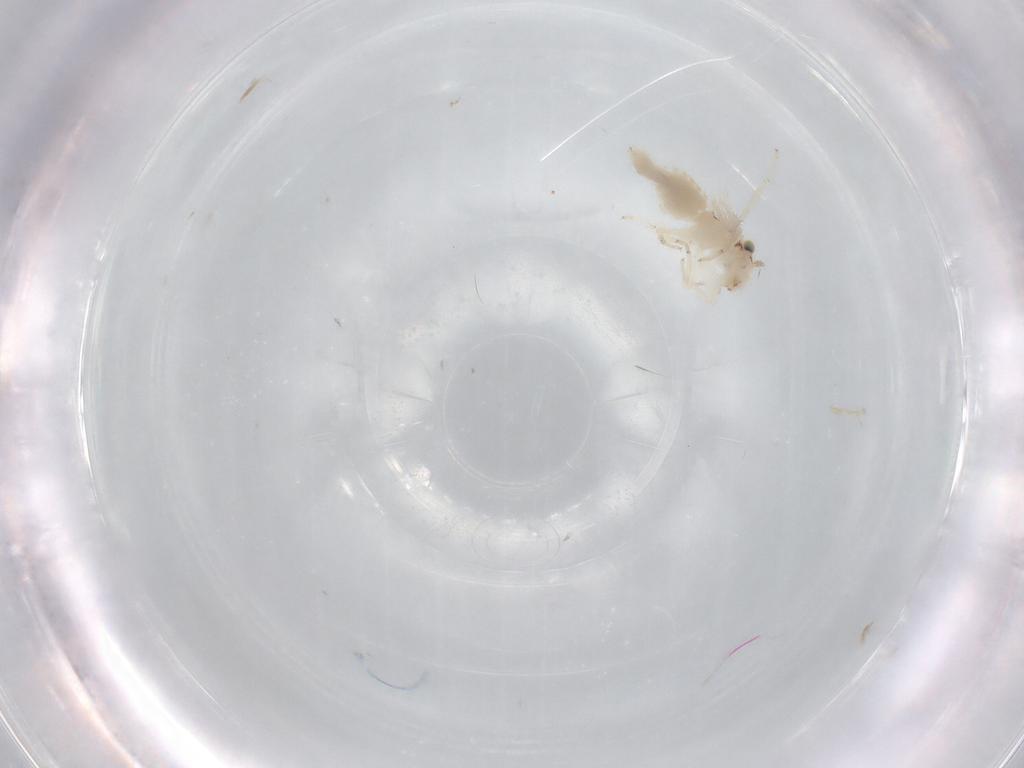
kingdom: Animalia
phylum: Arthropoda
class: Insecta
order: Psocodea
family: Lepidopsocidae
